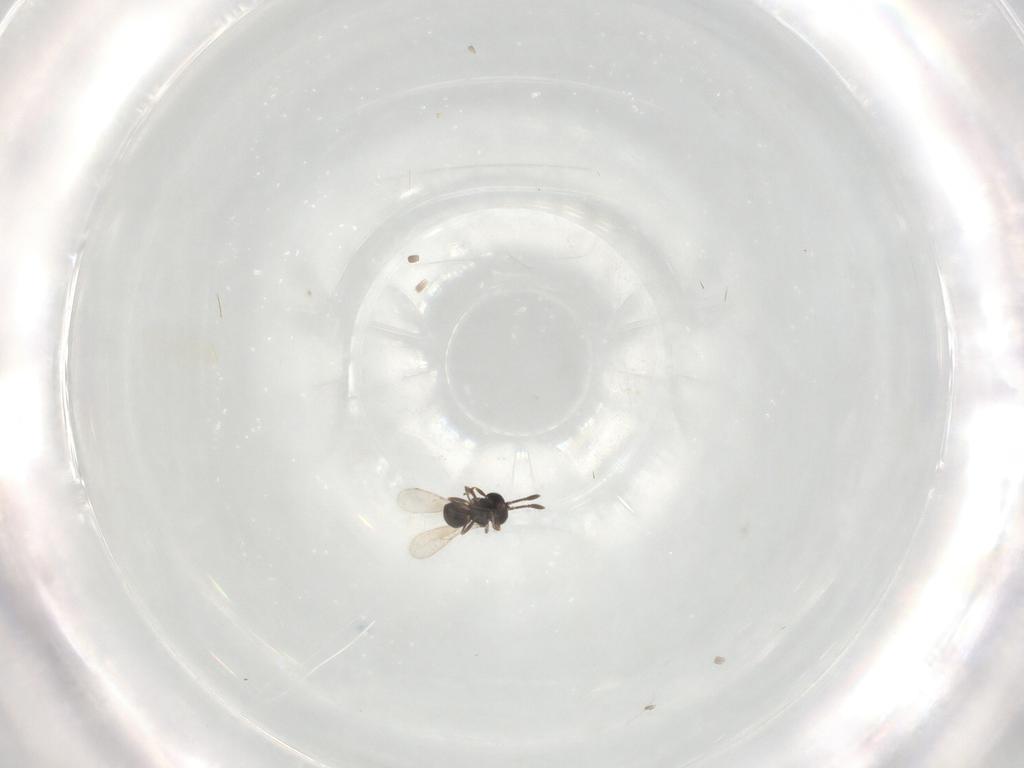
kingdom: Animalia
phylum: Arthropoda
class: Insecta
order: Hymenoptera
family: Scelionidae
